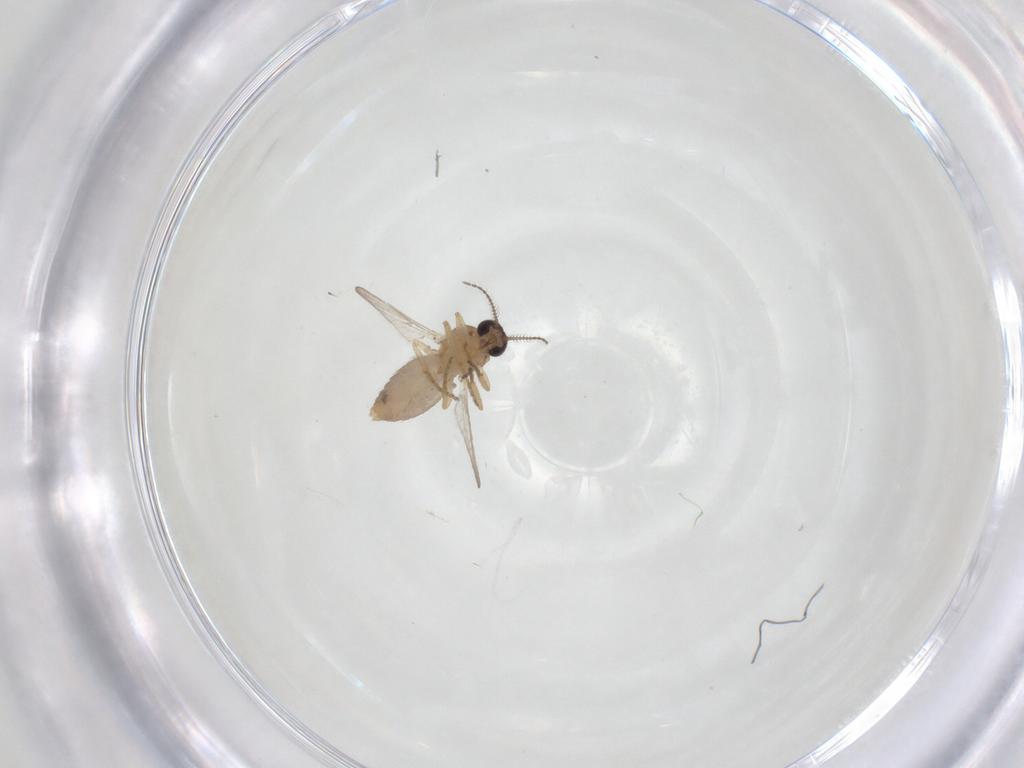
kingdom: Animalia
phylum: Arthropoda
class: Insecta
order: Diptera
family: Ceratopogonidae
